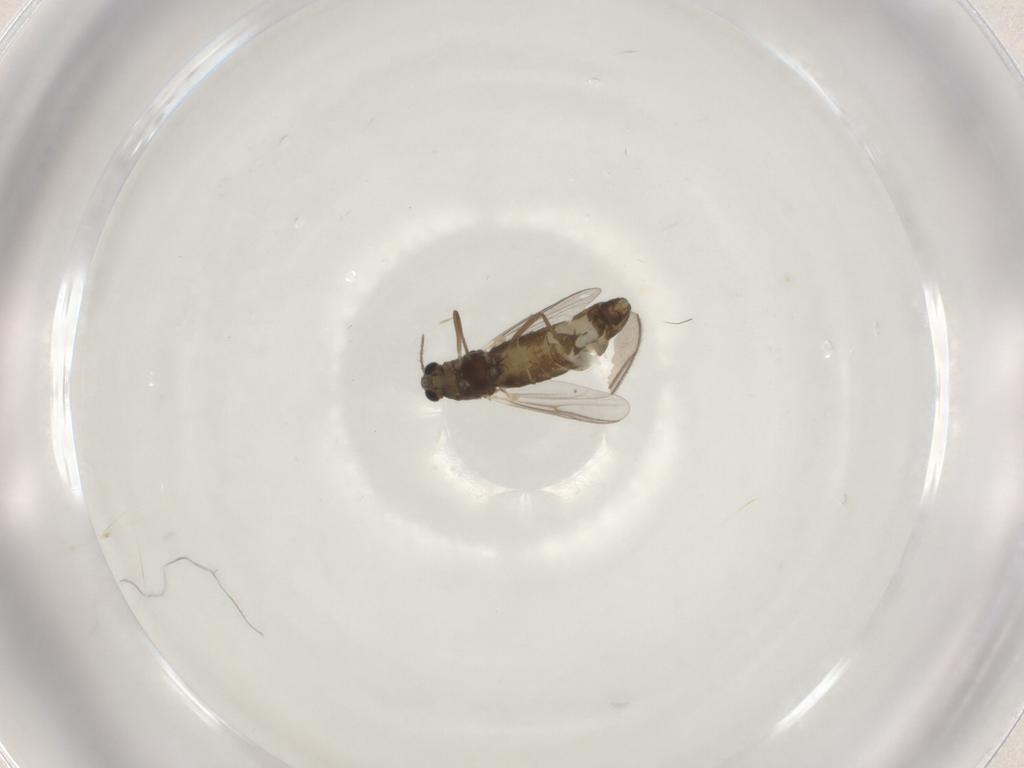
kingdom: Animalia
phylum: Arthropoda
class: Insecta
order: Diptera
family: Chironomidae
